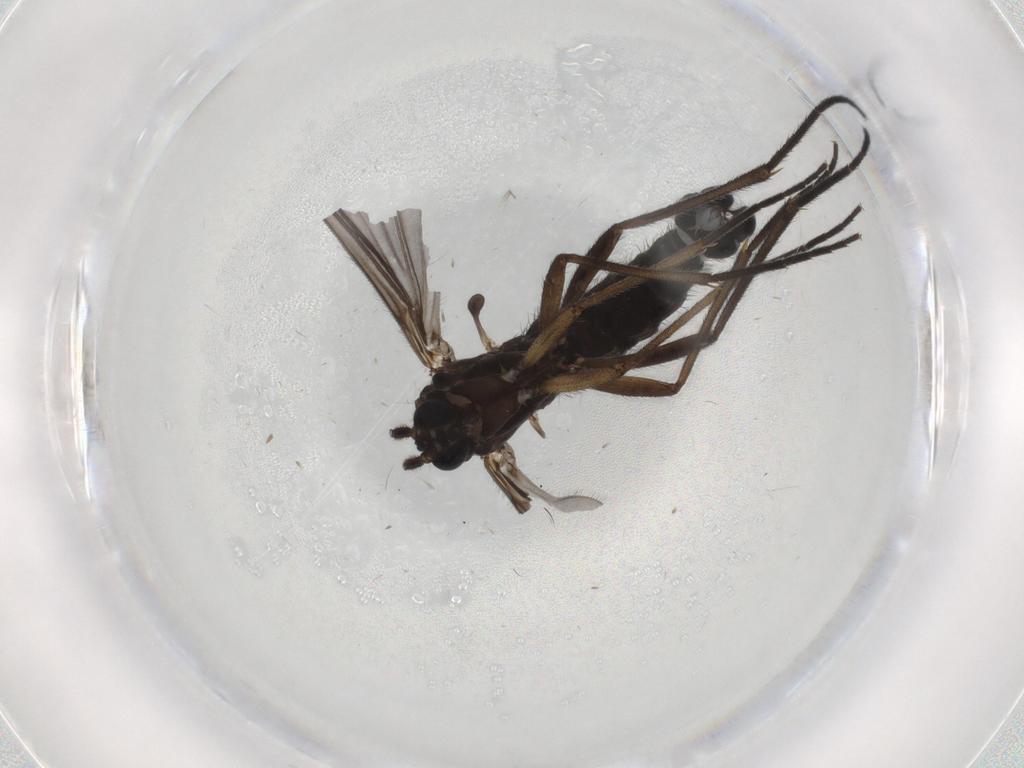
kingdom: Animalia
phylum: Arthropoda
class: Insecta
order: Diptera
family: Sciaridae
